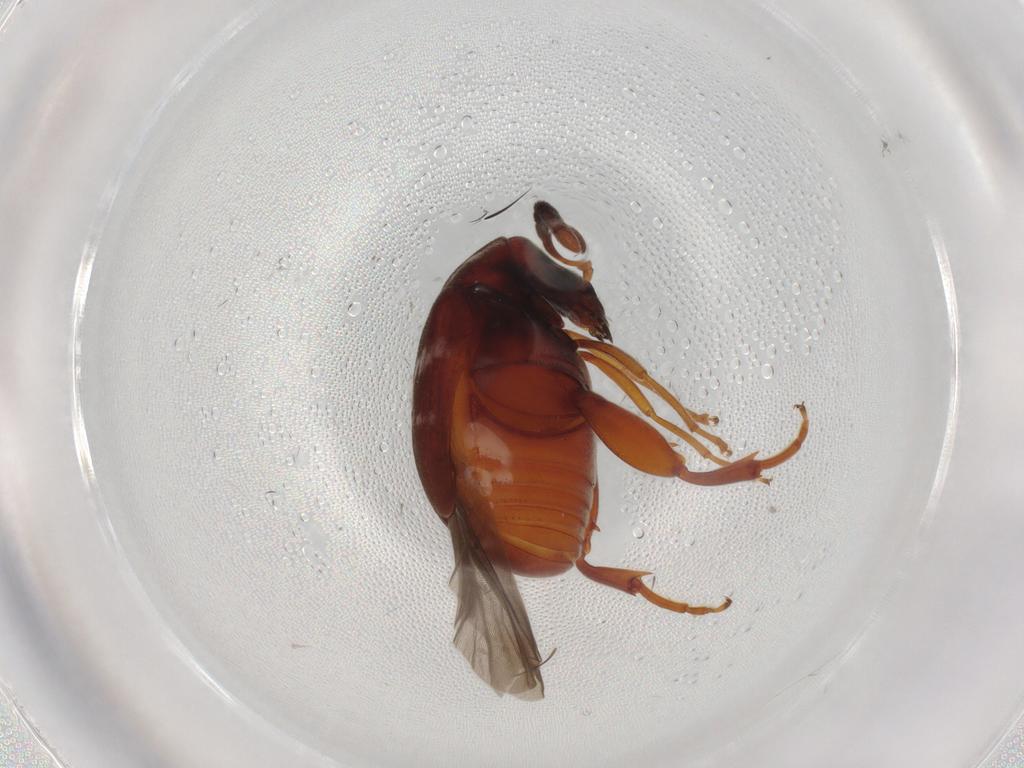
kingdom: Animalia
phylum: Arthropoda
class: Insecta
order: Coleoptera
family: Chrysomelidae
